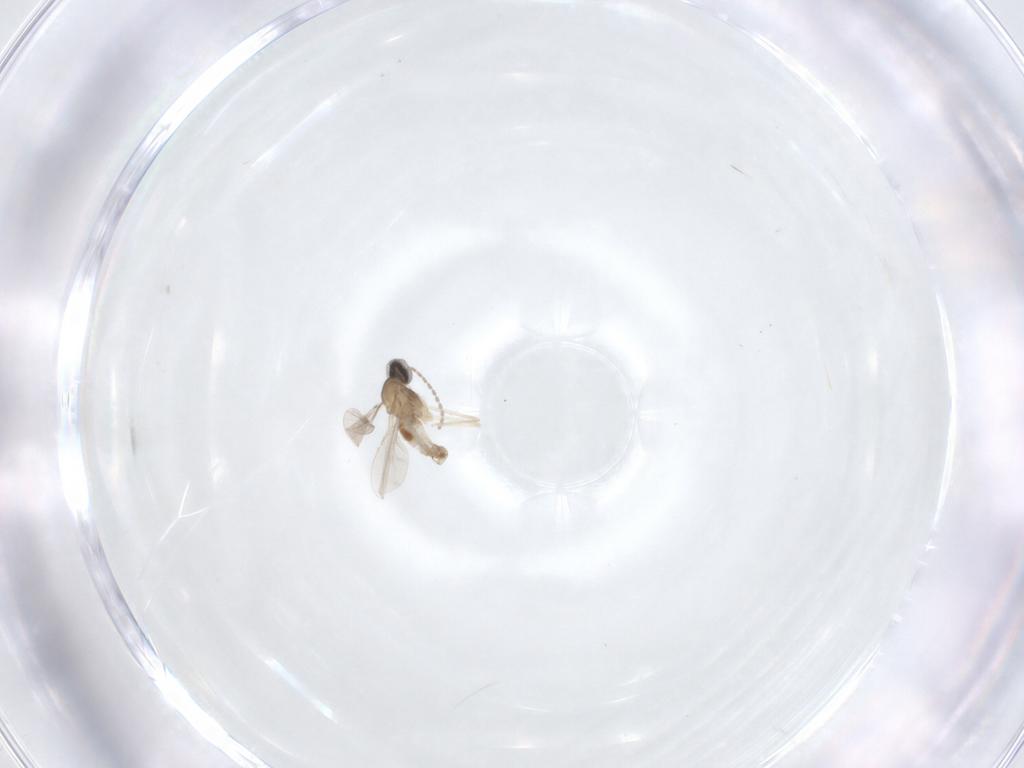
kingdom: Animalia
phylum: Arthropoda
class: Insecta
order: Diptera
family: Cecidomyiidae
